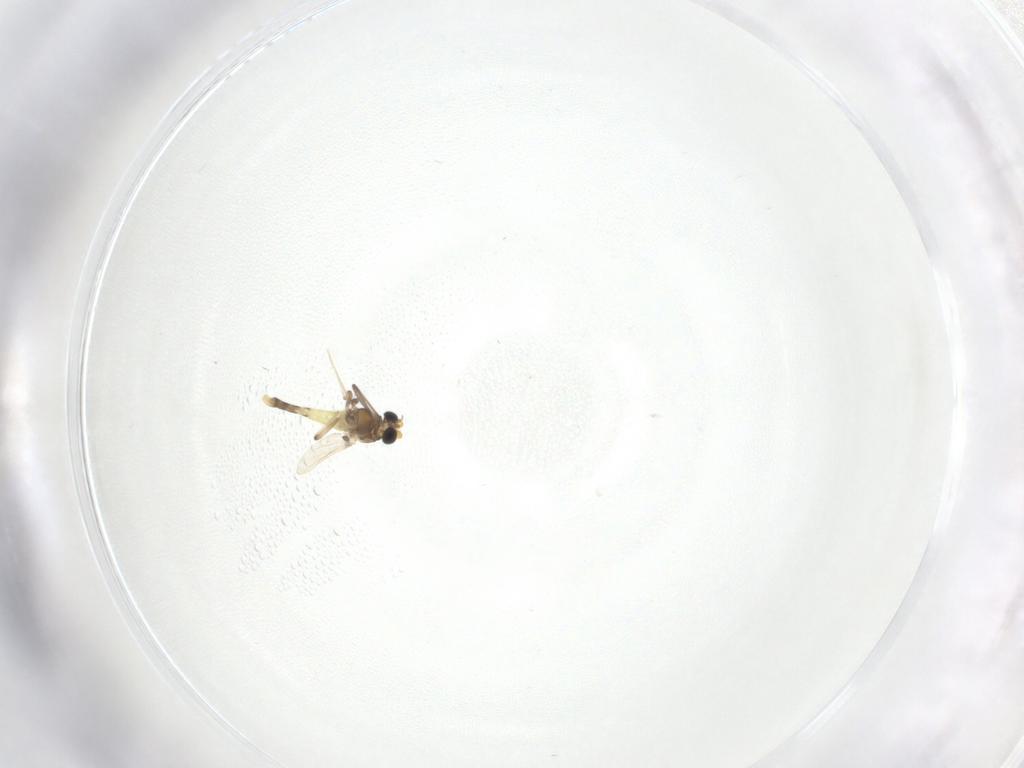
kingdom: Animalia
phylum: Arthropoda
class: Insecta
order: Diptera
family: Chironomidae
